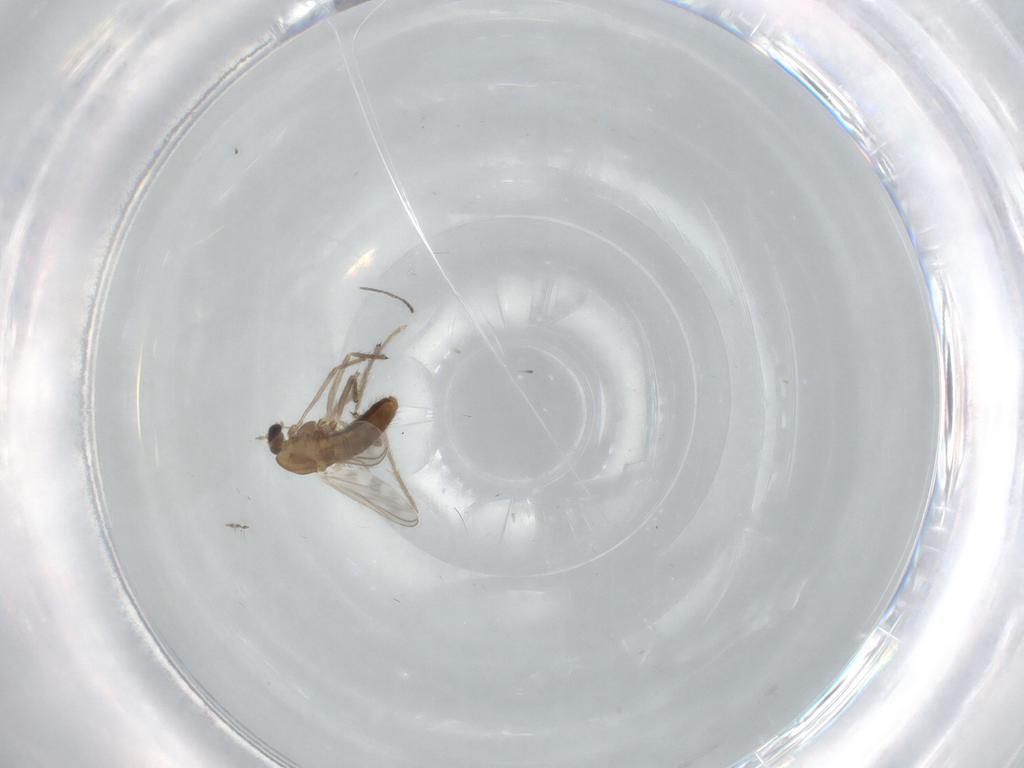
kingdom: Animalia
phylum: Arthropoda
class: Insecta
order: Diptera
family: Chironomidae
